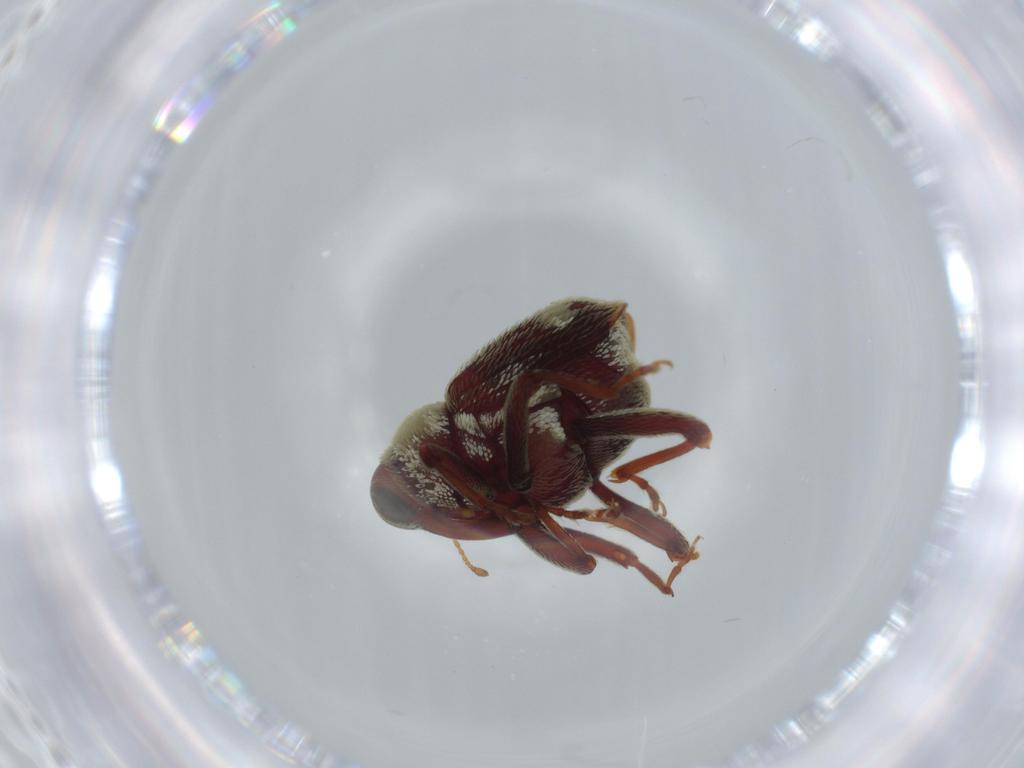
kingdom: Animalia
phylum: Arthropoda
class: Insecta
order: Coleoptera
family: Curculionidae
